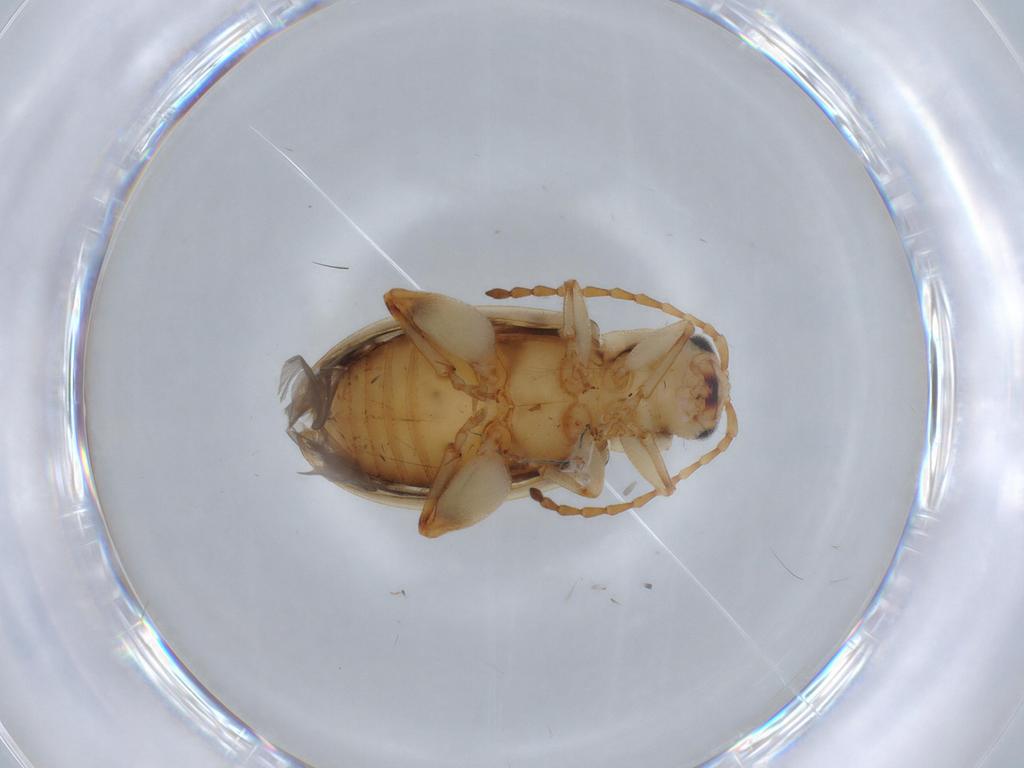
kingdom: Animalia
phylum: Arthropoda
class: Insecta
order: Coleoptera
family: Chrysomelidae
